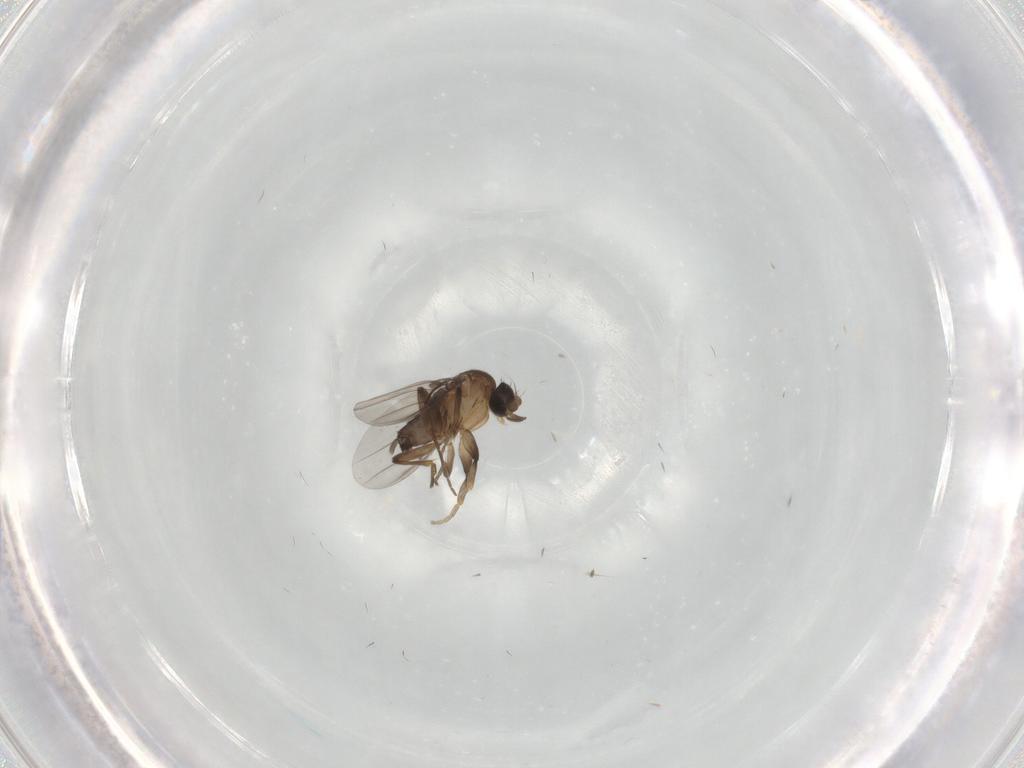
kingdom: Animalia
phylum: Arthropoda
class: Insecta
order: Diptera
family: Phoridae
